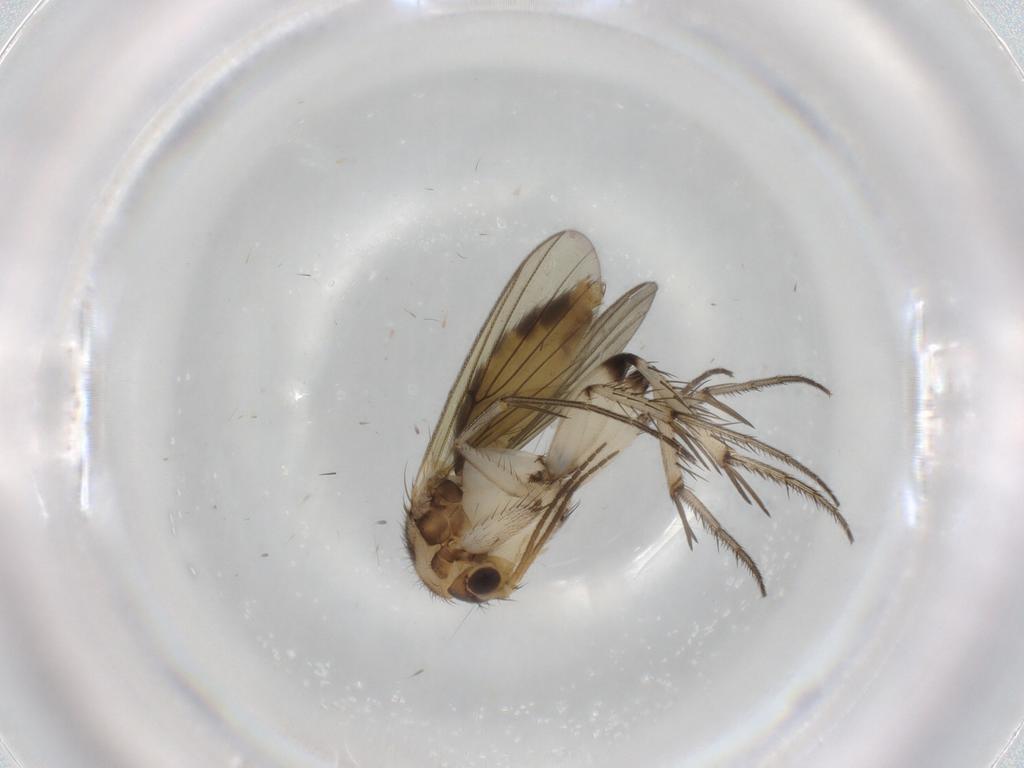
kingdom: Animalia
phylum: Arthropoda
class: Insecta
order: Diptera
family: Mycetophilidae
